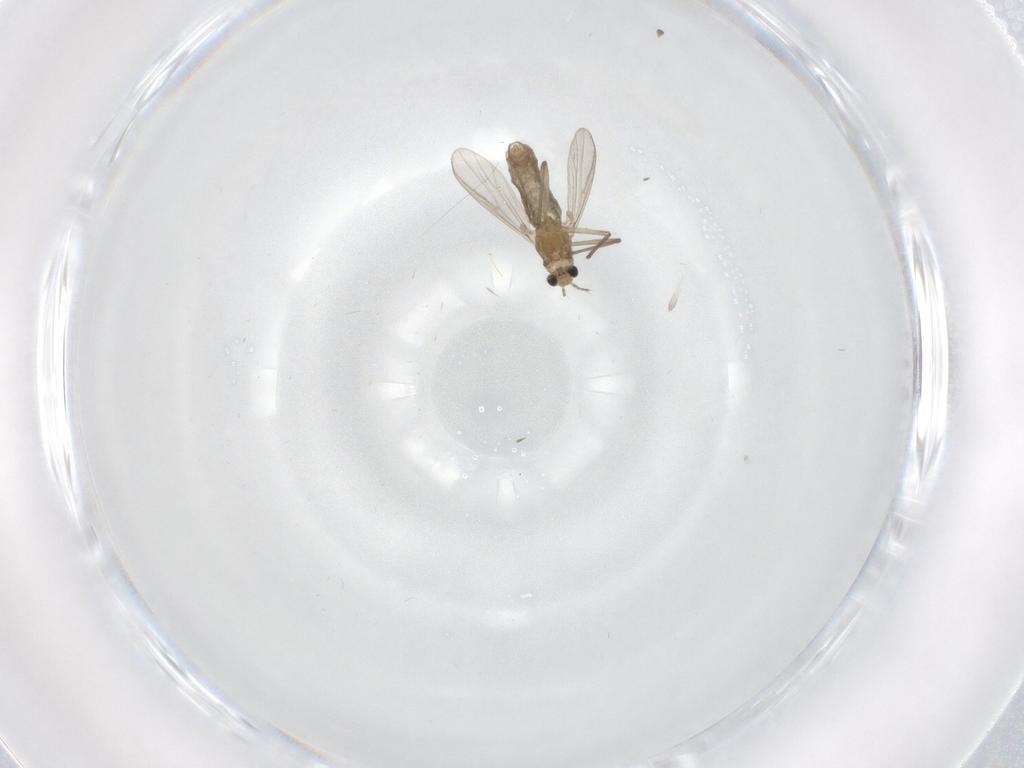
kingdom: Animalia
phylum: Arthropoda
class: Insecta
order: Diptera
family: Chironomidae
